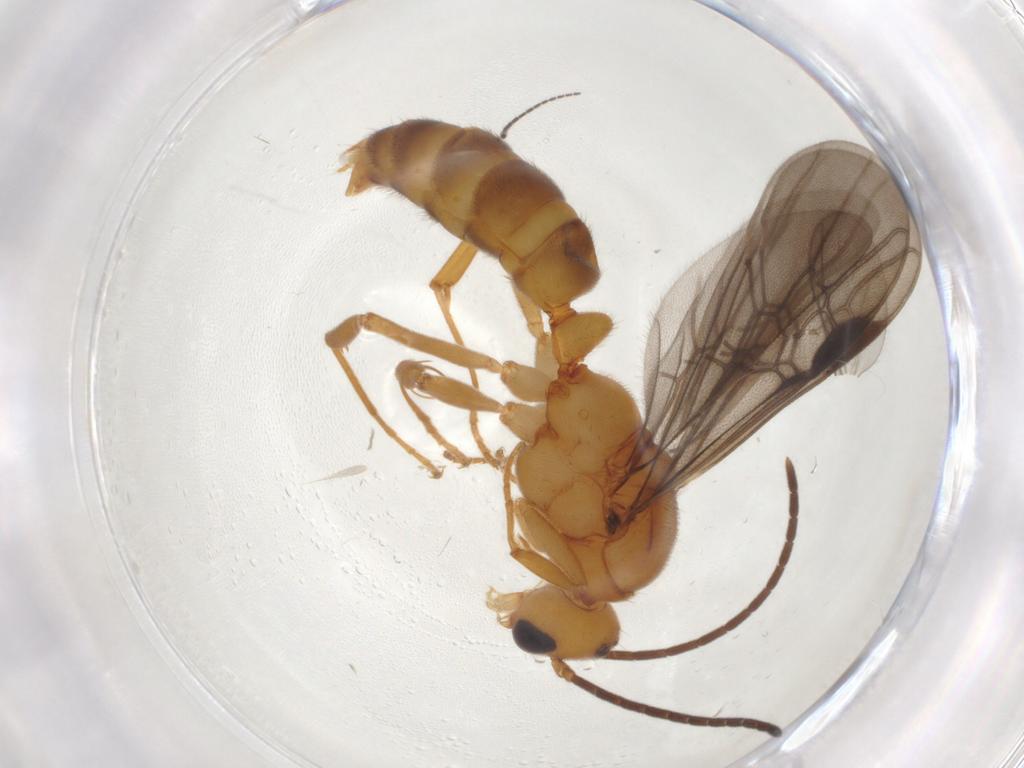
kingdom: Animalia
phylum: Arthropoda
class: Insecta
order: Hymenoptera
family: Formicidae
